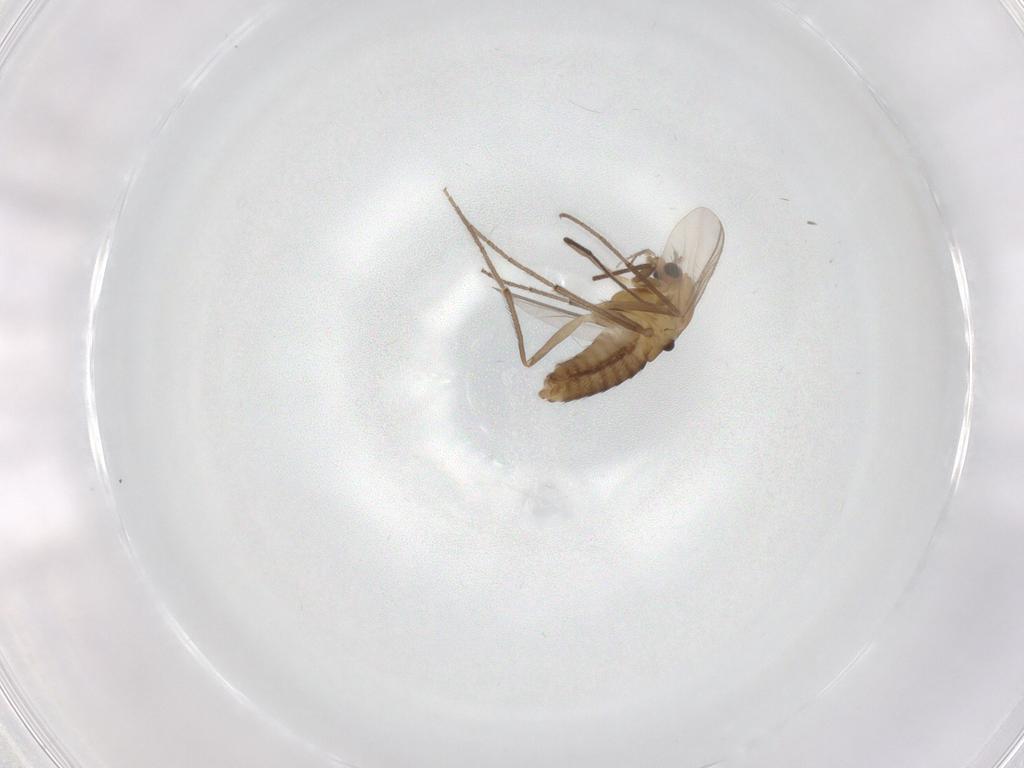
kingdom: Animalia
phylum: Arthropoda
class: Insecta
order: Diptera
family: Chironomidae
